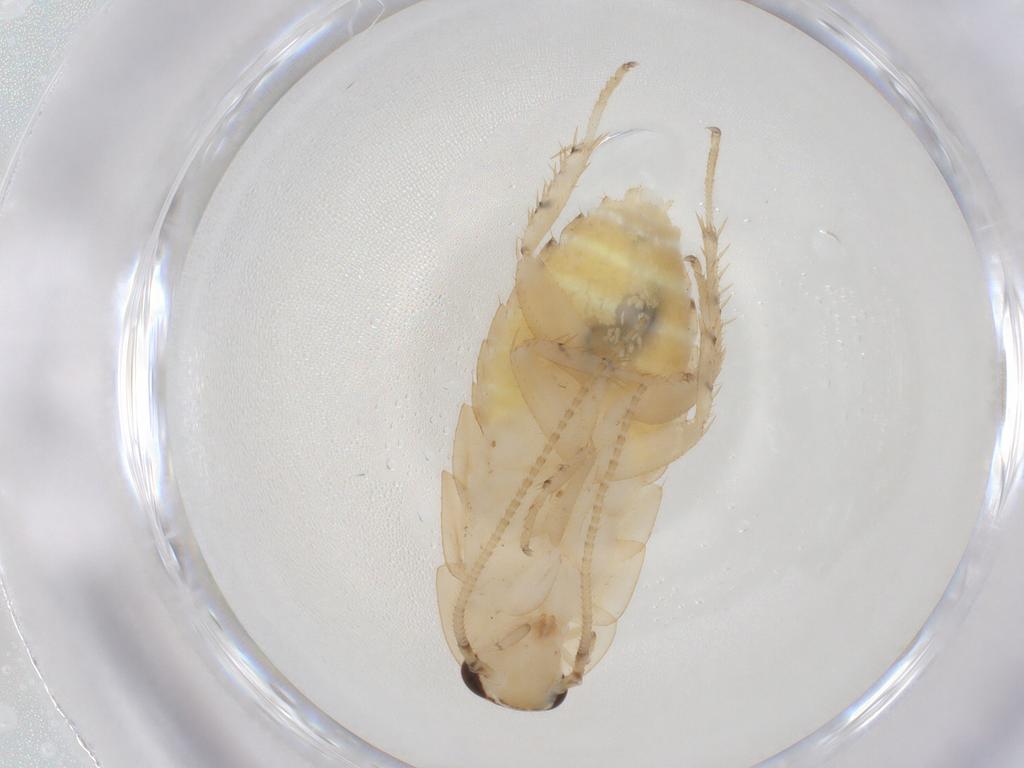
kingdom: Animalia
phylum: Arthropoda
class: Insecta
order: Blattodea
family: Ectobiidae
